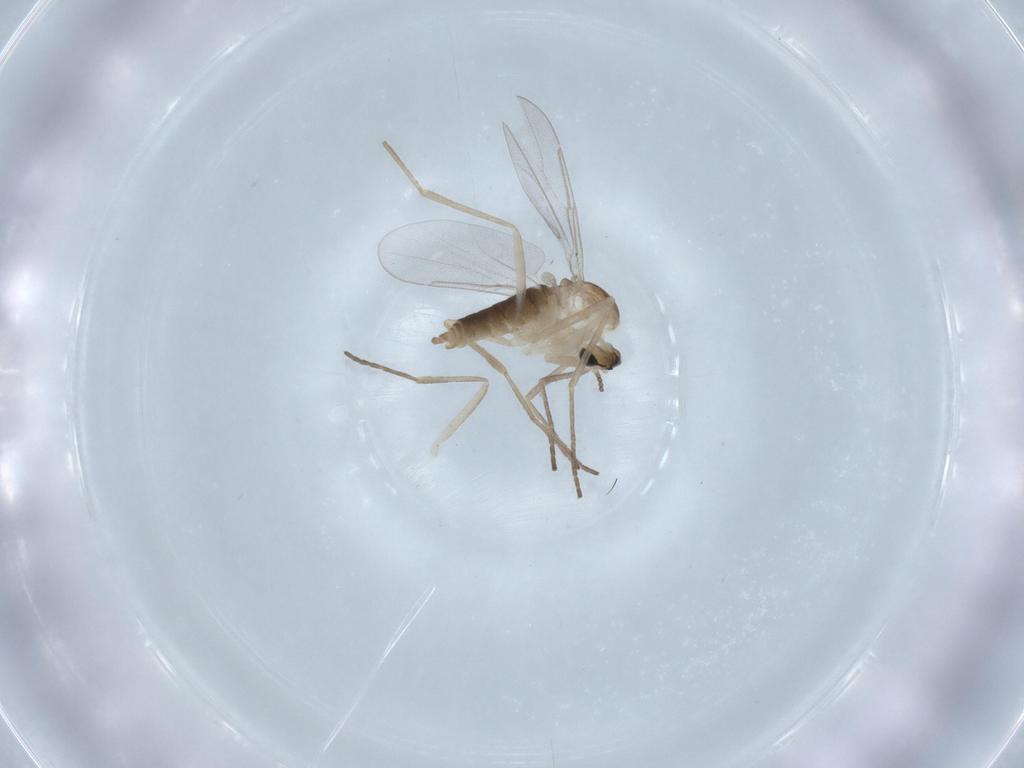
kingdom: Animalia
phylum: Arthropoda
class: Insecta
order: Diptera
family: Cecidomyiidae
